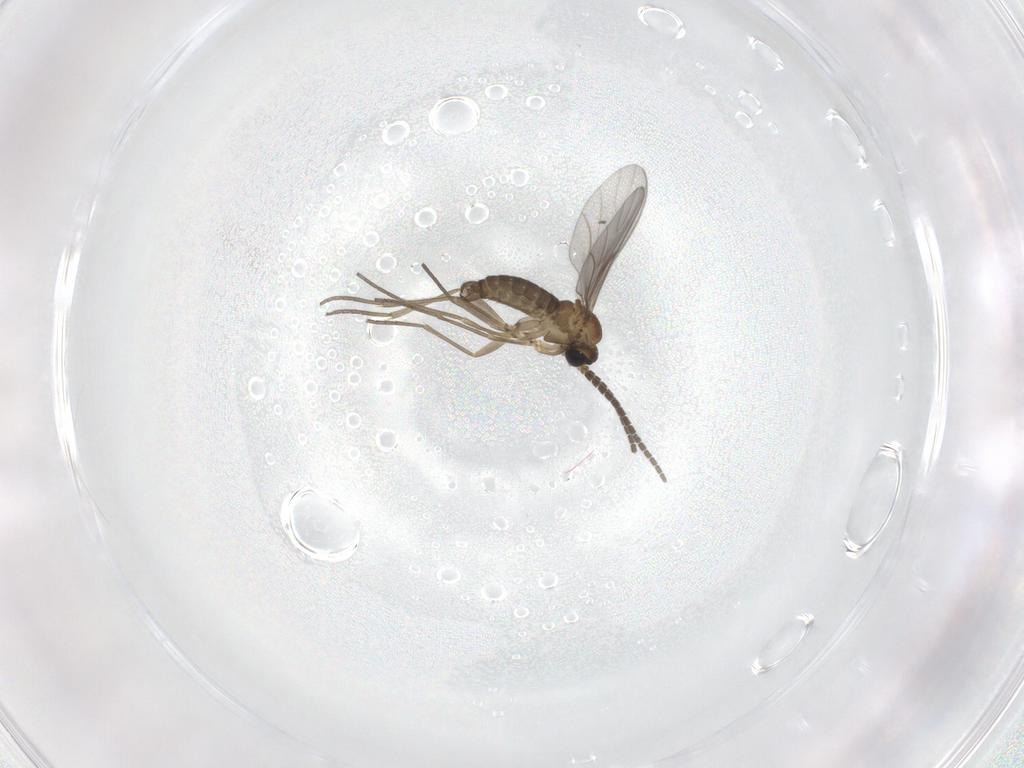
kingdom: Animalia
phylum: Arthropoda
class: Insecta
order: Diptera
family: Sciaridae
